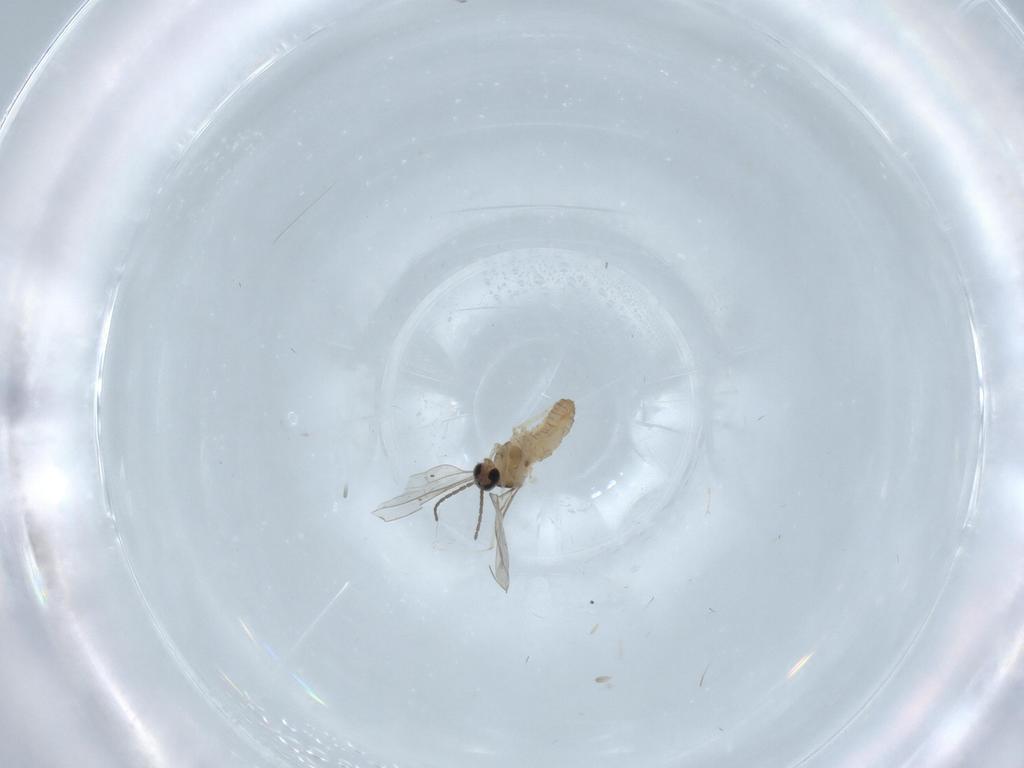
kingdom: Animalia
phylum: Arthropoda
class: Insecta
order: Diptera
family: Cecidomyiidae
